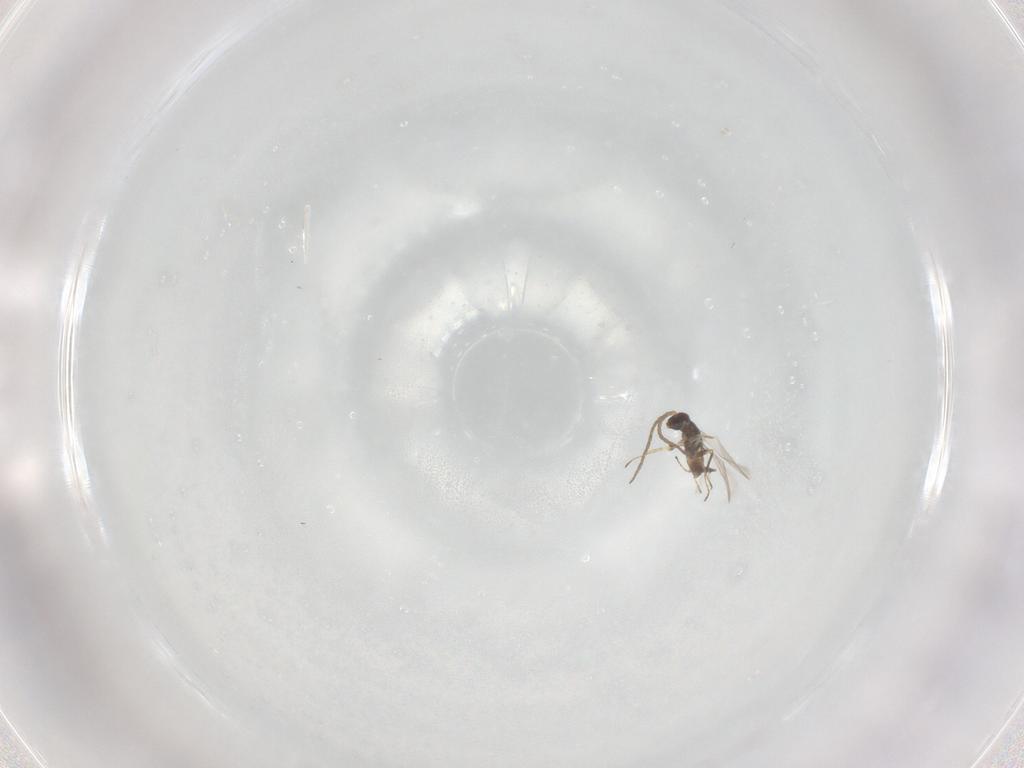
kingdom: Animalia
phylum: Arthropoda
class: Insecta
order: Hymenoptera
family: Mymaridae
